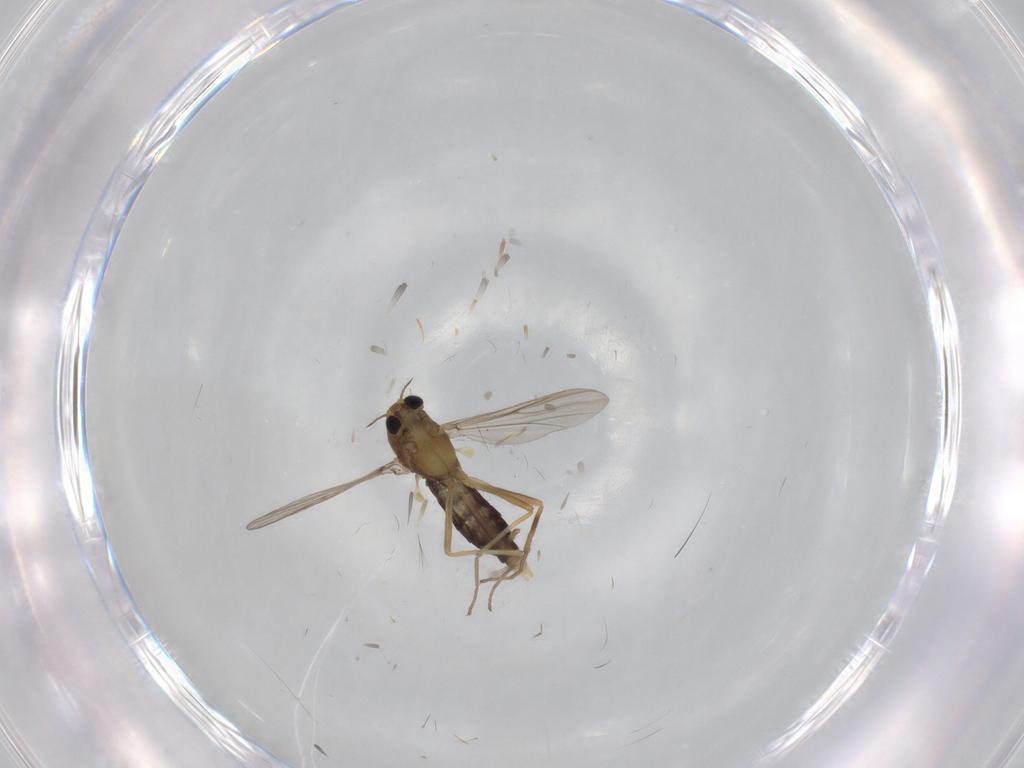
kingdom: Animalia
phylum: Arthropoda
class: Insecta
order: Diptera
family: Chironomidae
